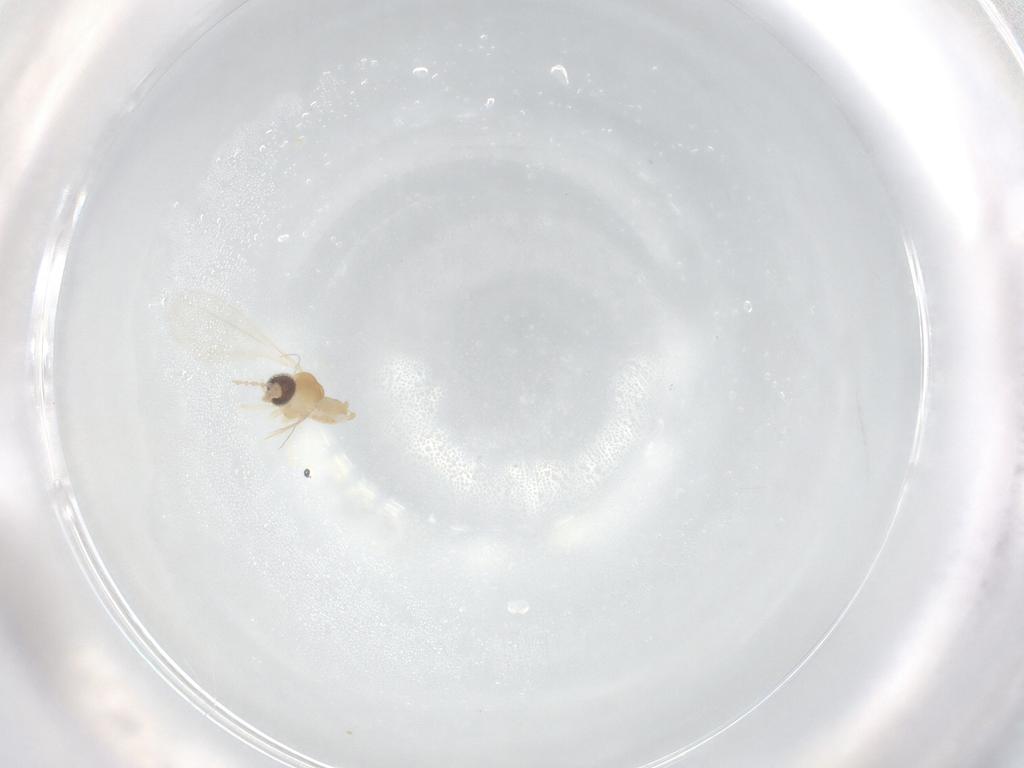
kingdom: Animalia
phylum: Arthropoda
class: Insecta
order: Diptera
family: Cecidomyiidae
